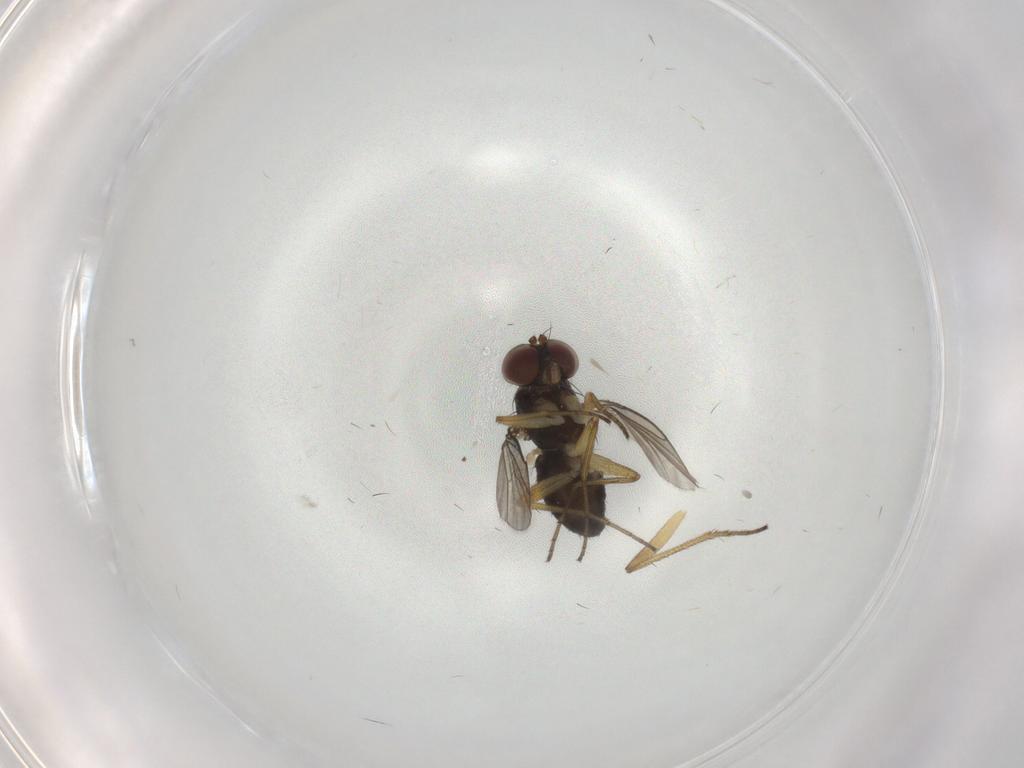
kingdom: Animalia
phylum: Arthropoda
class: Insecta
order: Diptera
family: Dolichopodidae
